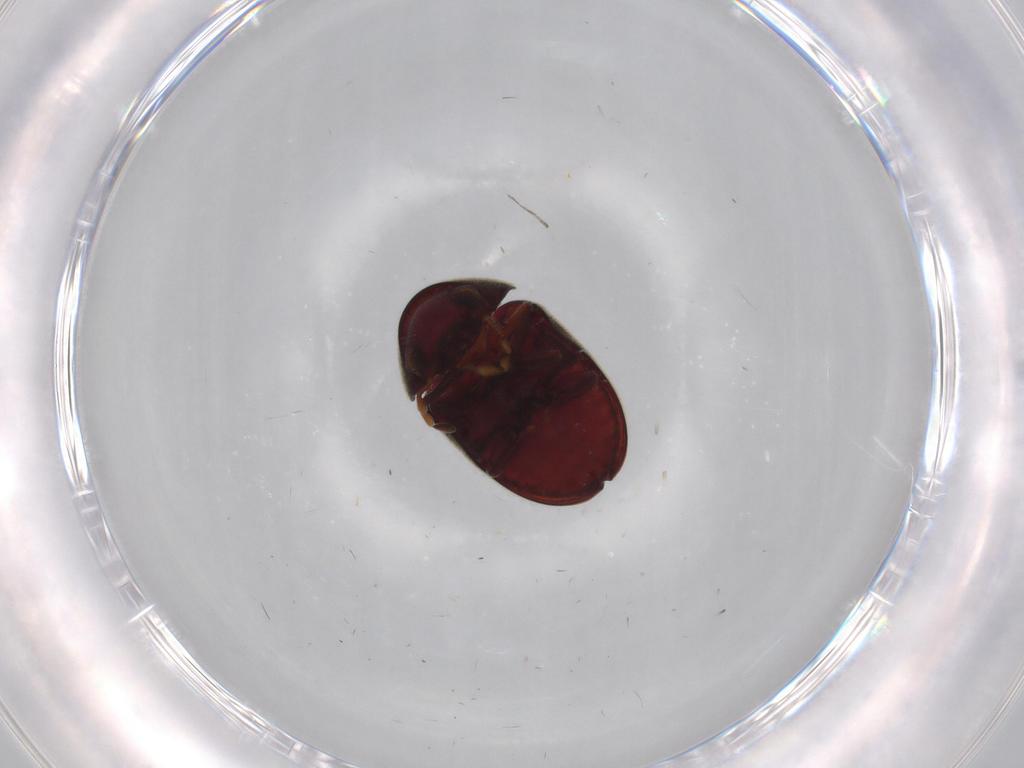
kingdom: Animalia
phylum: Arthropoda
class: Insecta
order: Coleoptera
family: Ptinidae
